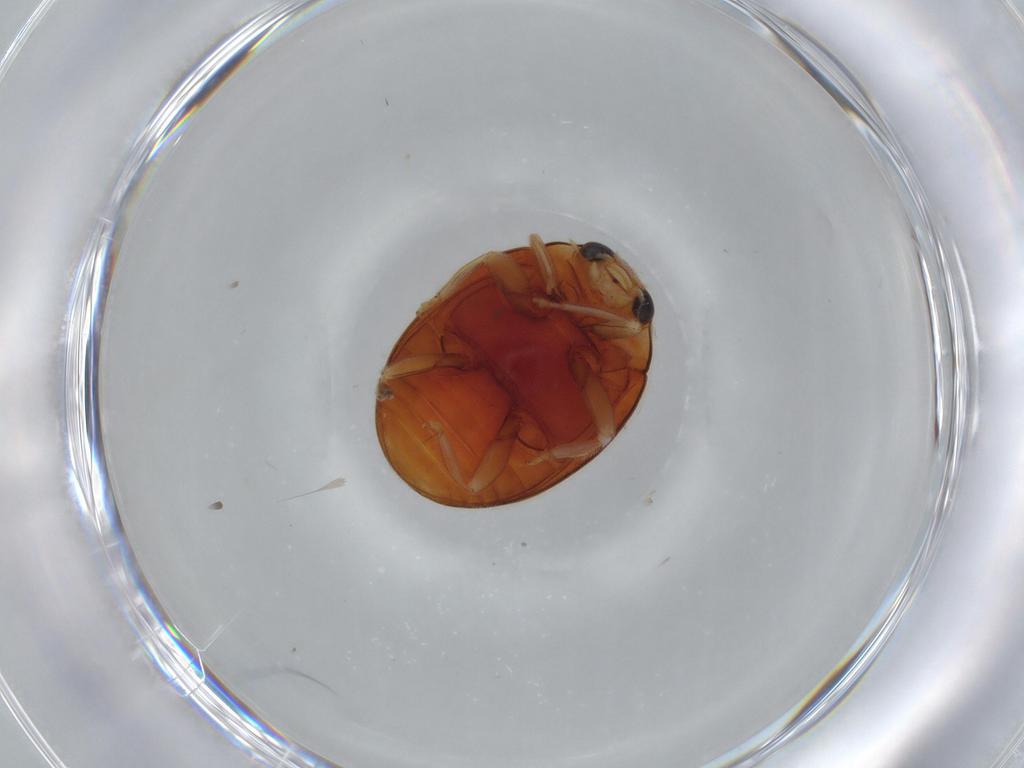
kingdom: Animalia
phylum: Arthropoda
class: Insecta
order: Coleoptera
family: Coccinellidae
